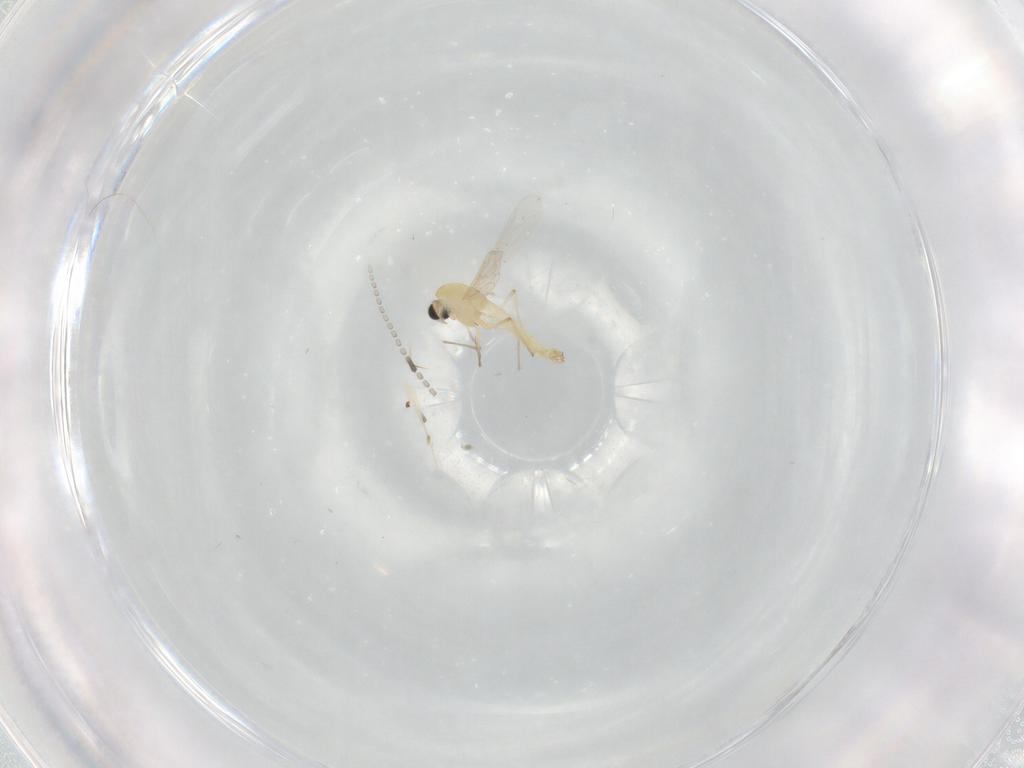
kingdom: Animalia
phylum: Arthropoda
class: Insecta
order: Diptera
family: Chironomidae
